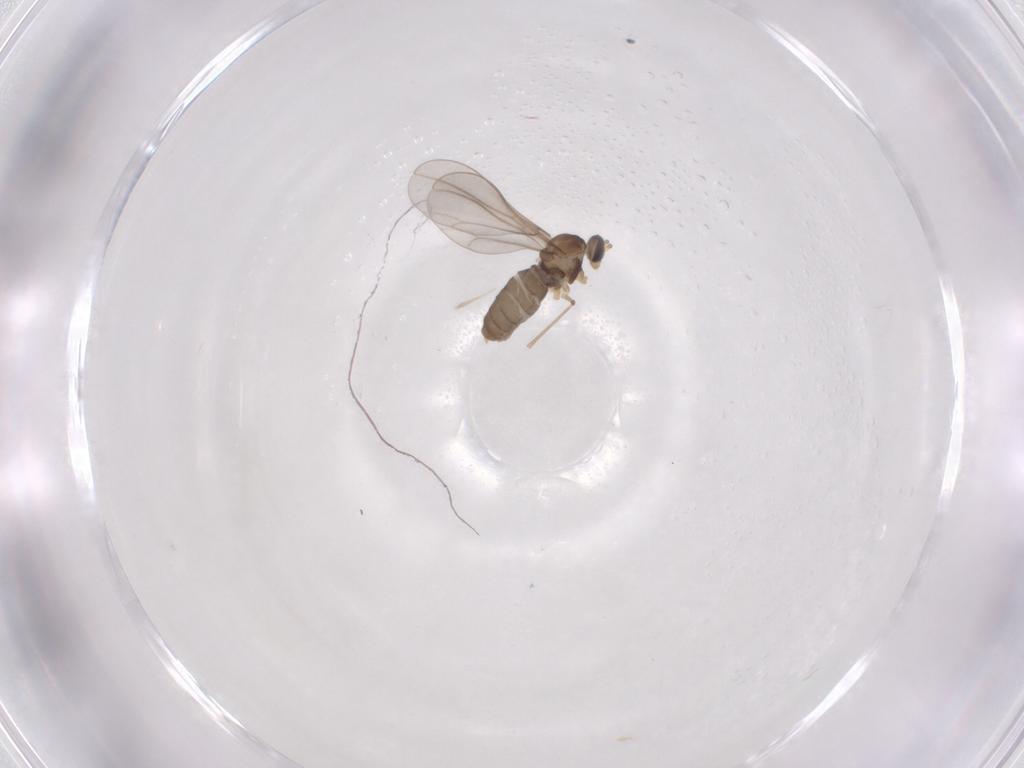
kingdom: Animalia
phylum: Arthropoda
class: Insecta
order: Diptera
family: Cecidomyiidae
